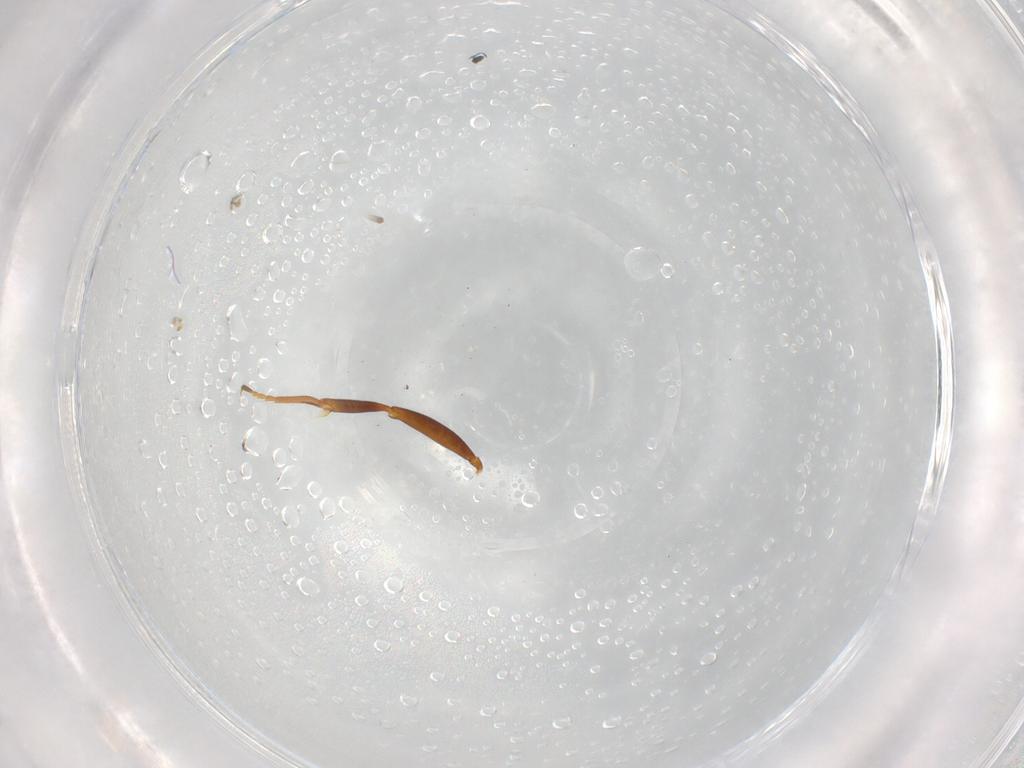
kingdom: Animalia
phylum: Arthropoda
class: Insecta
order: Hymenoptera
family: Formicidae
